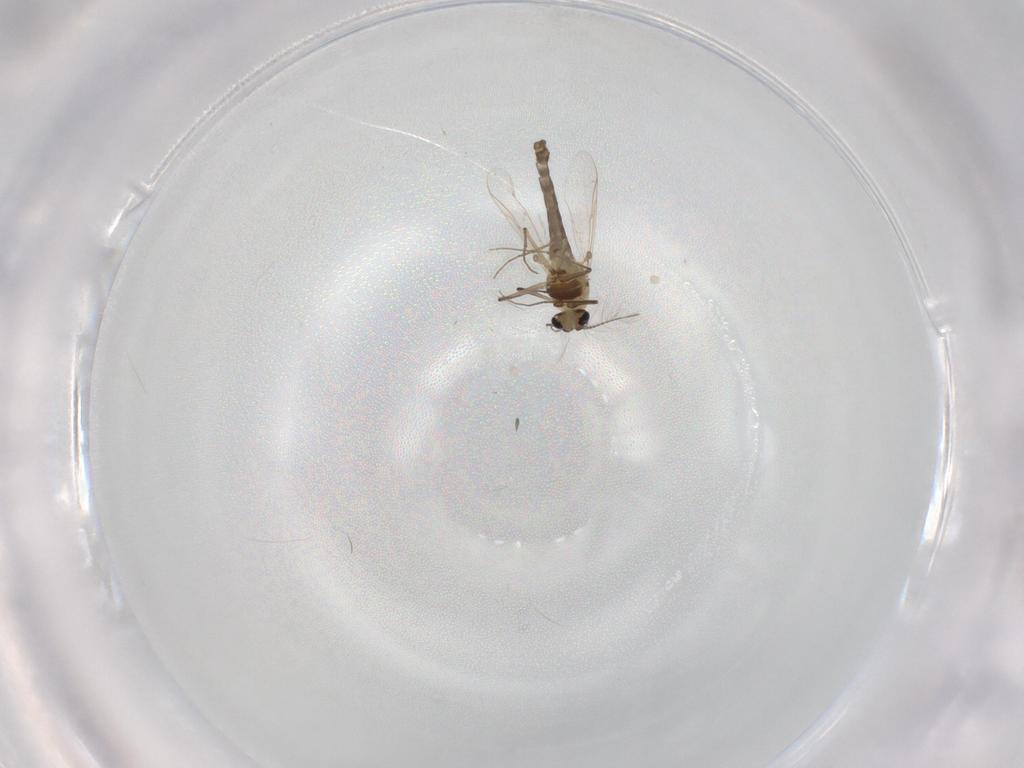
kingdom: Animalia
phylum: Arthropoda
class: Insecta
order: Diptera
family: Chironomidae
